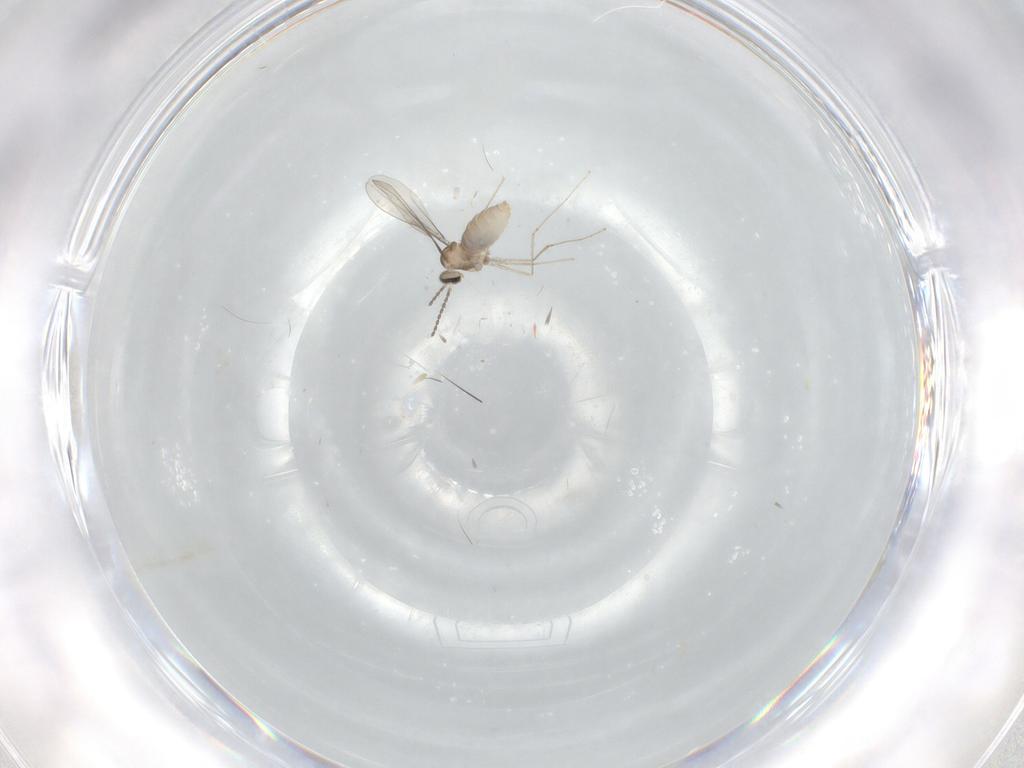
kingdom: Animalia
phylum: Arthropoda
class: Insecta
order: Diptera
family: Cecidomyiidae
